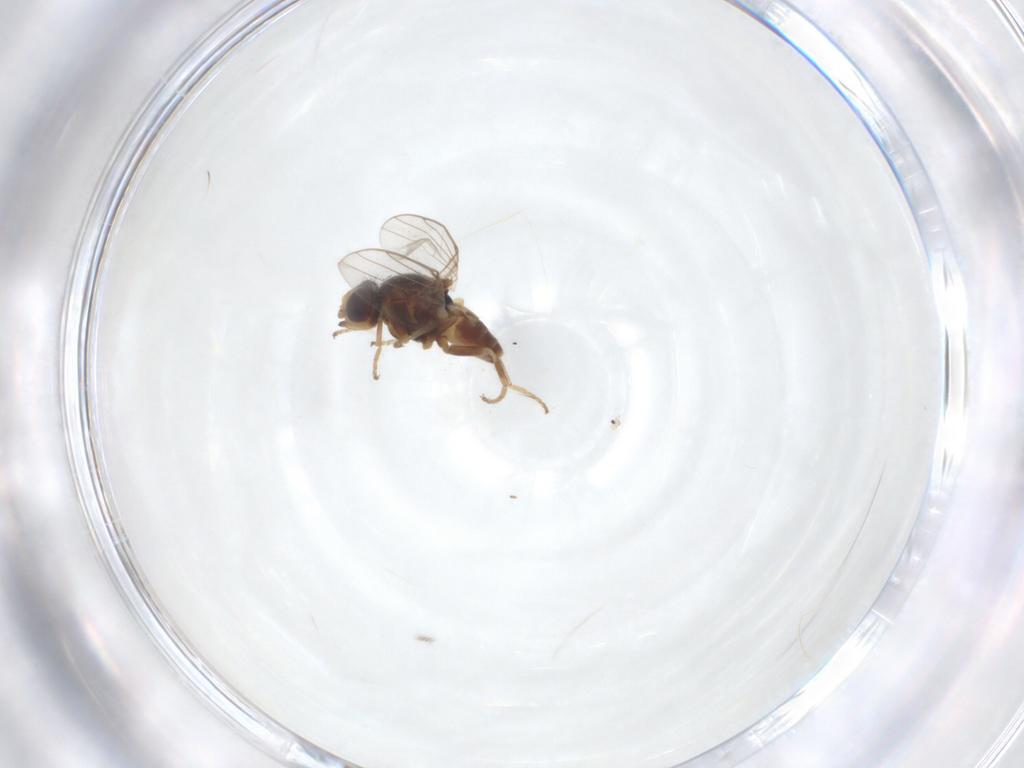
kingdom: Animalia
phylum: Arthropoda
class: Insecta
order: Diptera
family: Chloropidae
